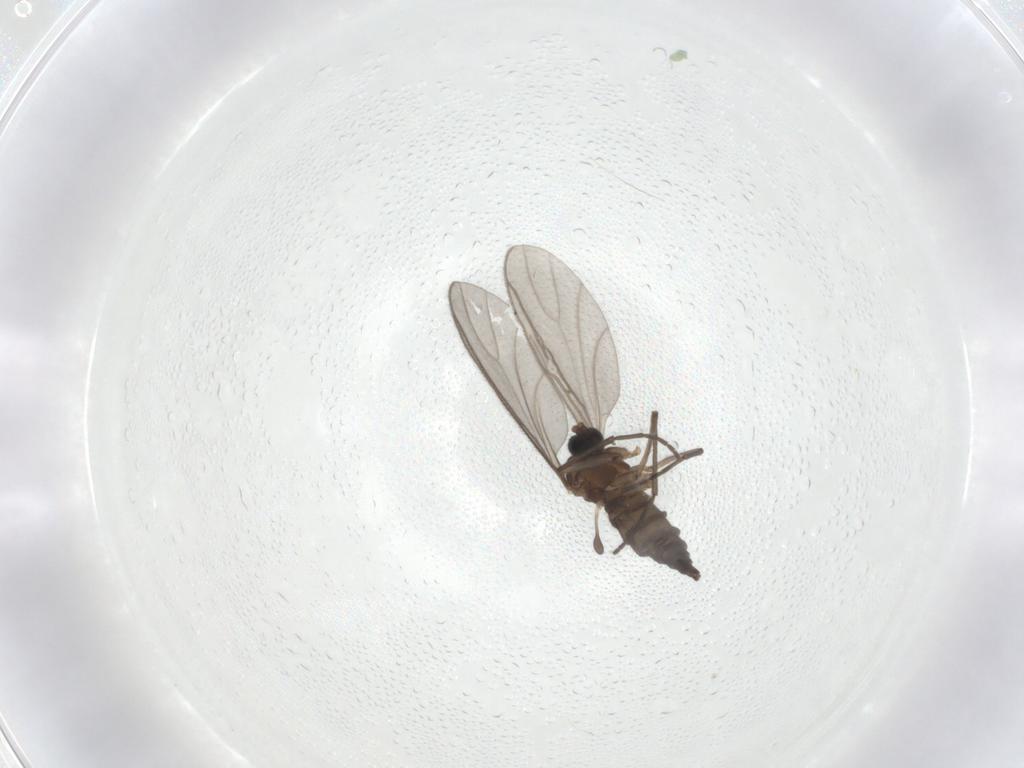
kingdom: Animalia
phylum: Arthropoda
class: Insecta
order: Diptera
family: Sciaridae
